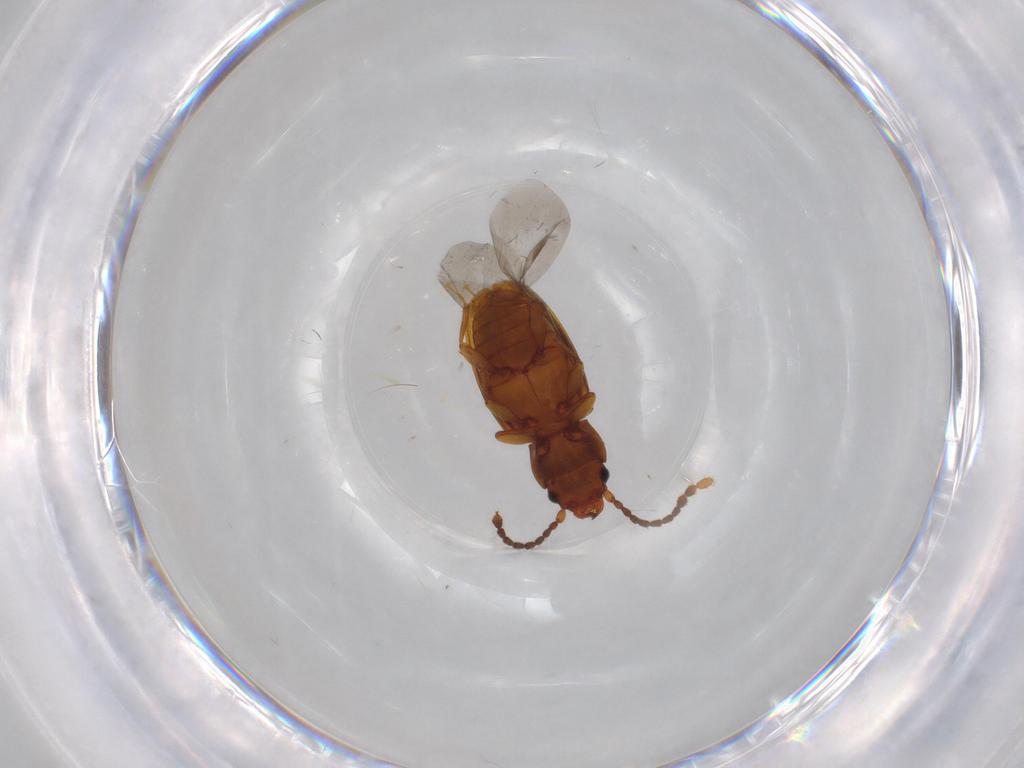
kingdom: Animalia
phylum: Arthropoda
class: Insecta
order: Coleoptera
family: Laemophloeidae
